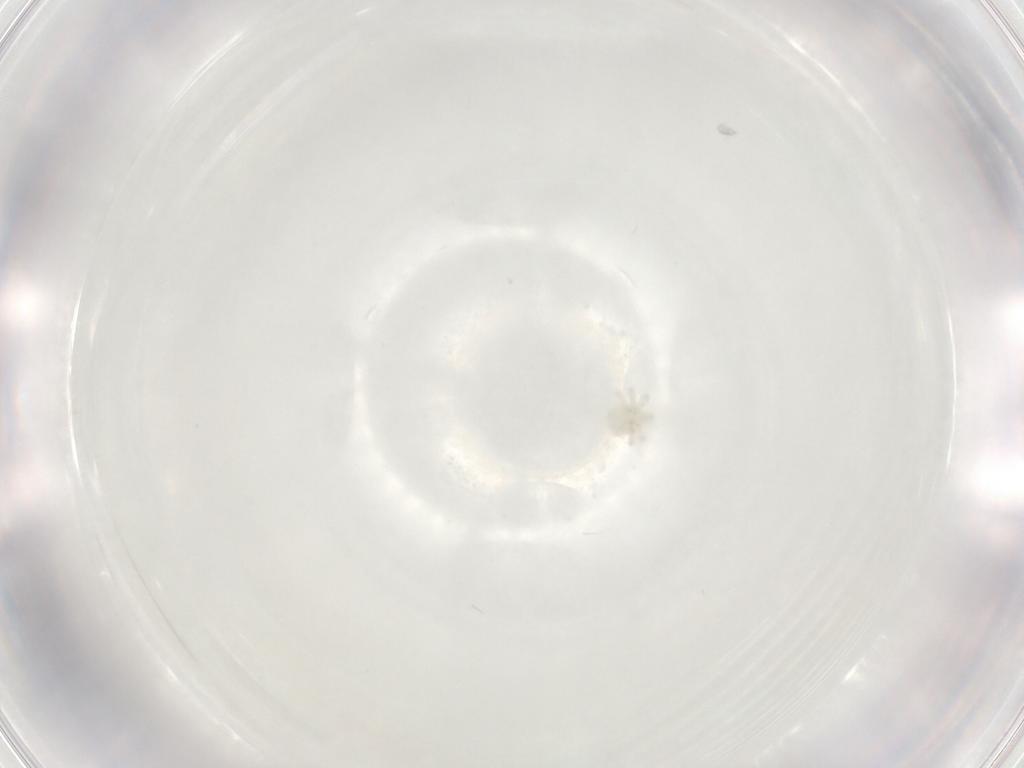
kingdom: Animalia
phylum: Arthropoda
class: Arachnida
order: Trombidiformes
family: Anystidae
